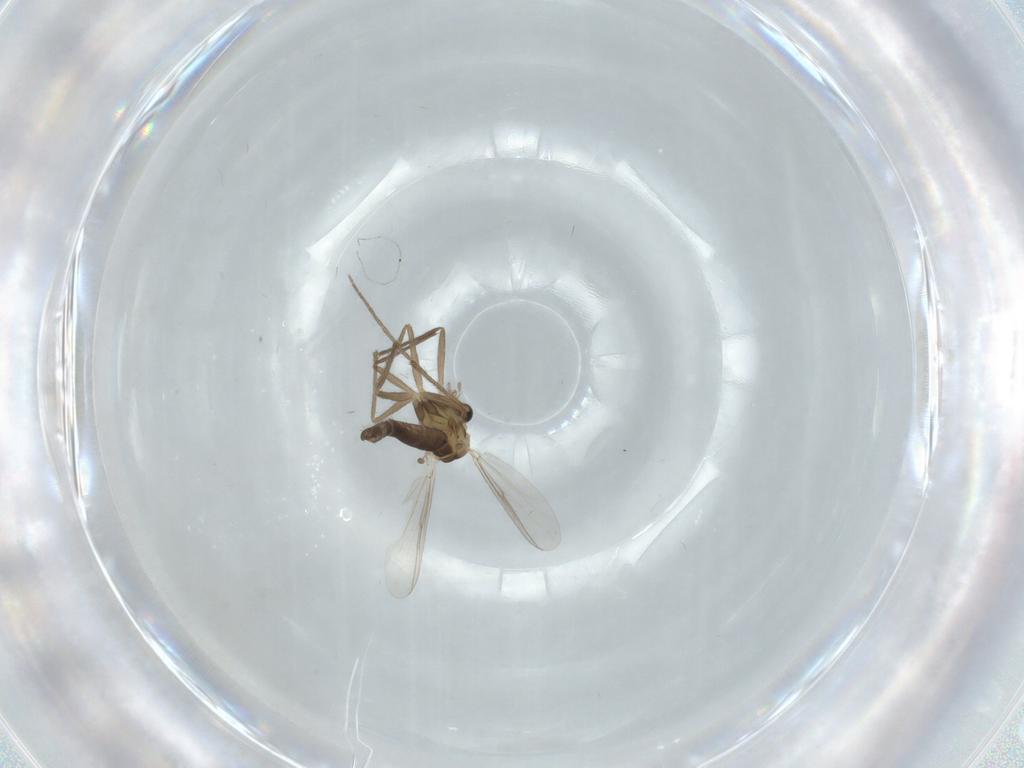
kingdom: Animalia
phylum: Arthropoda
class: Insecta
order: Diptera
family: Chironomidae
